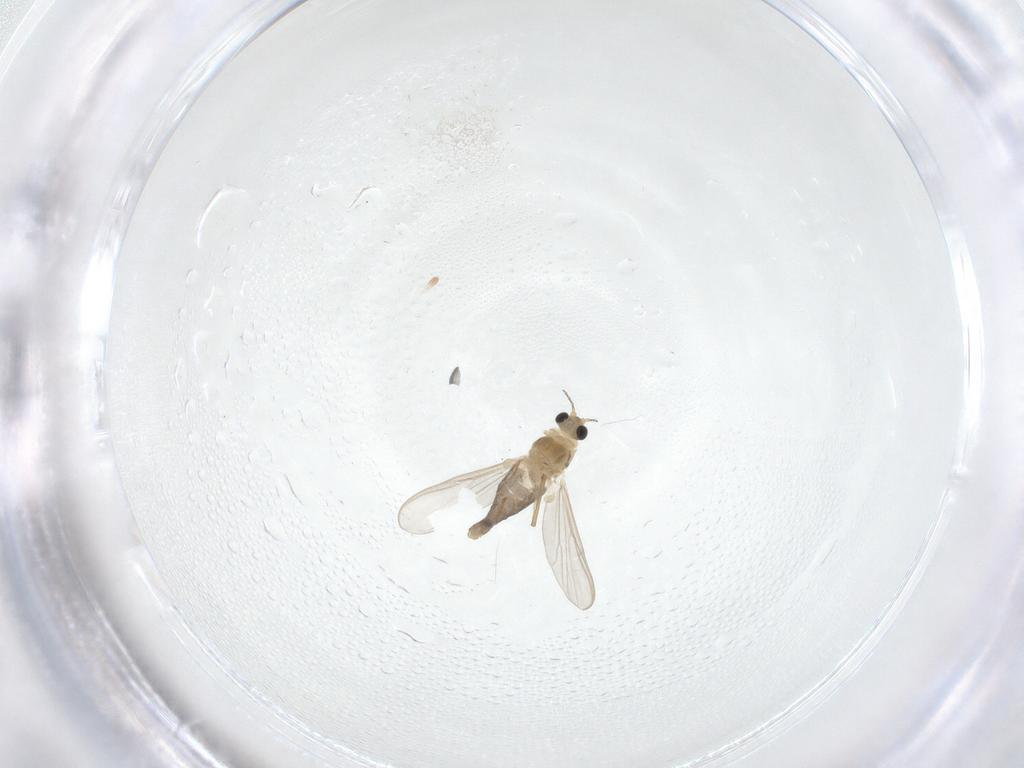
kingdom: Animalia
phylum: Arthropoda
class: Insecta
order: Diptera
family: Chironomidae
